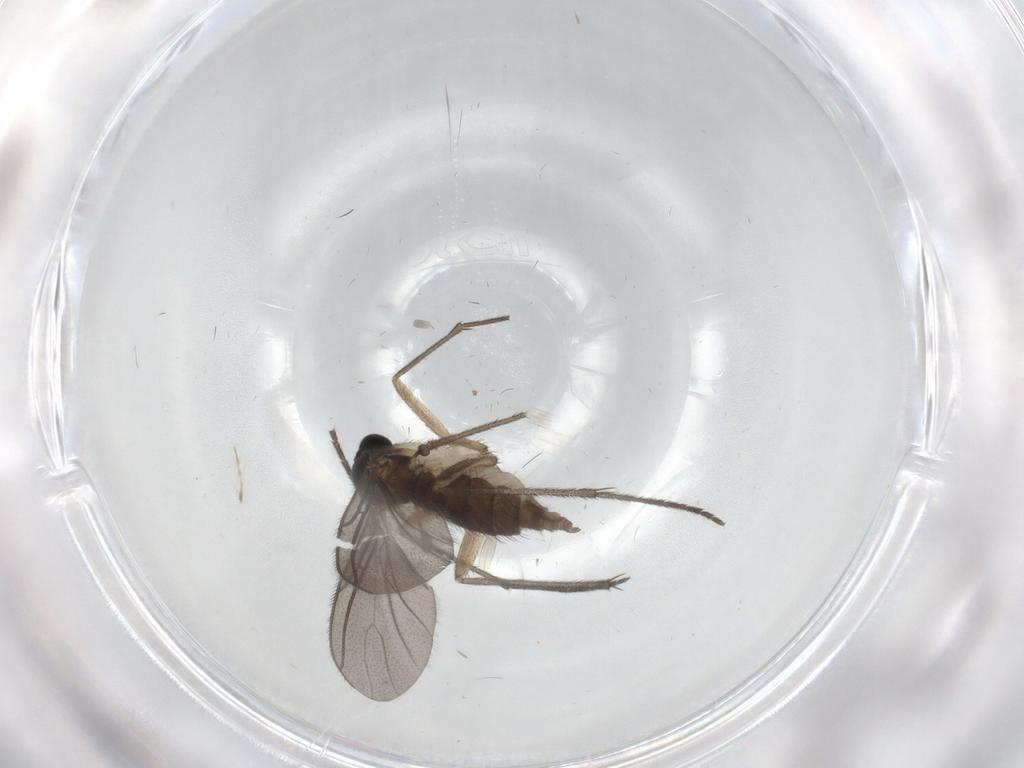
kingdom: Animalia
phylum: Arthropoda
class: Insecta
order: Diptera
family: Sciaridae
